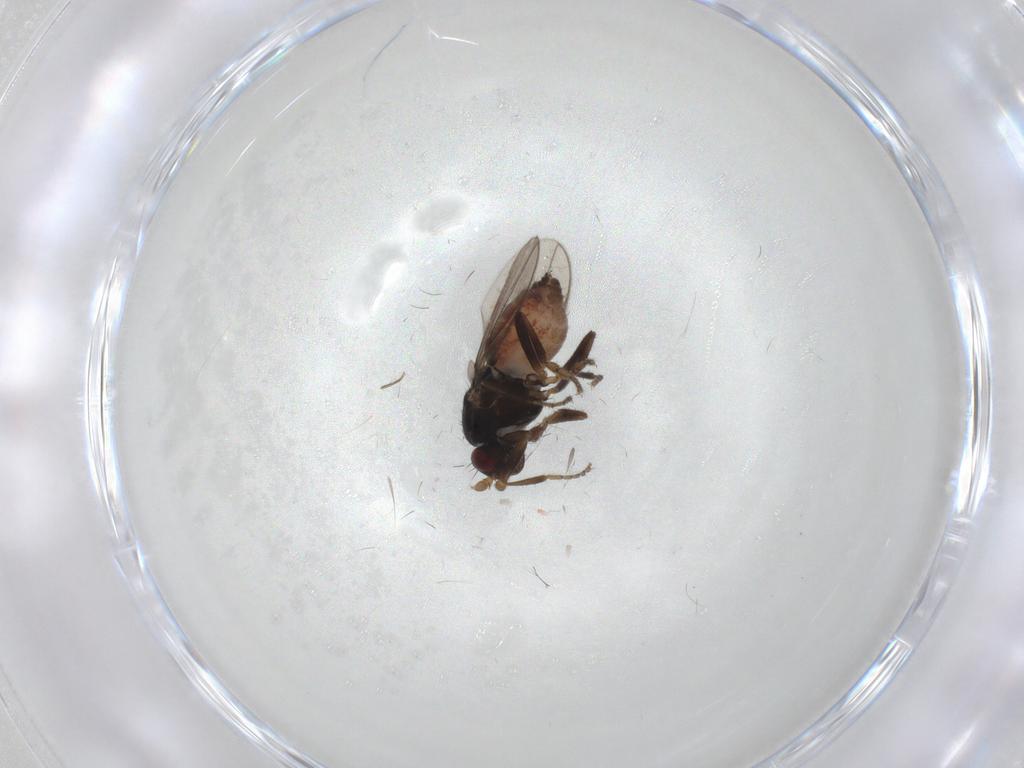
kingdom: Animalia
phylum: Arthropoda
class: Insecta
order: Diptera
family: Sphaeroceridae
